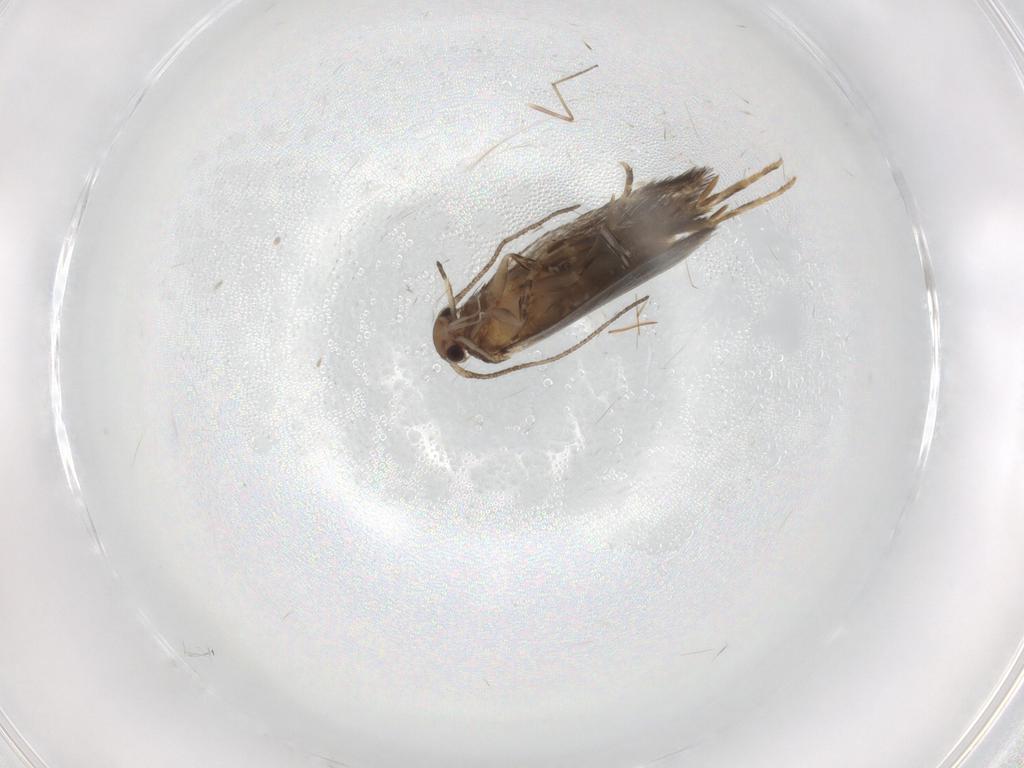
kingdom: Animalia
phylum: Arthropoda
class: Insecta
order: Lepidoptera
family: Elachistidae
